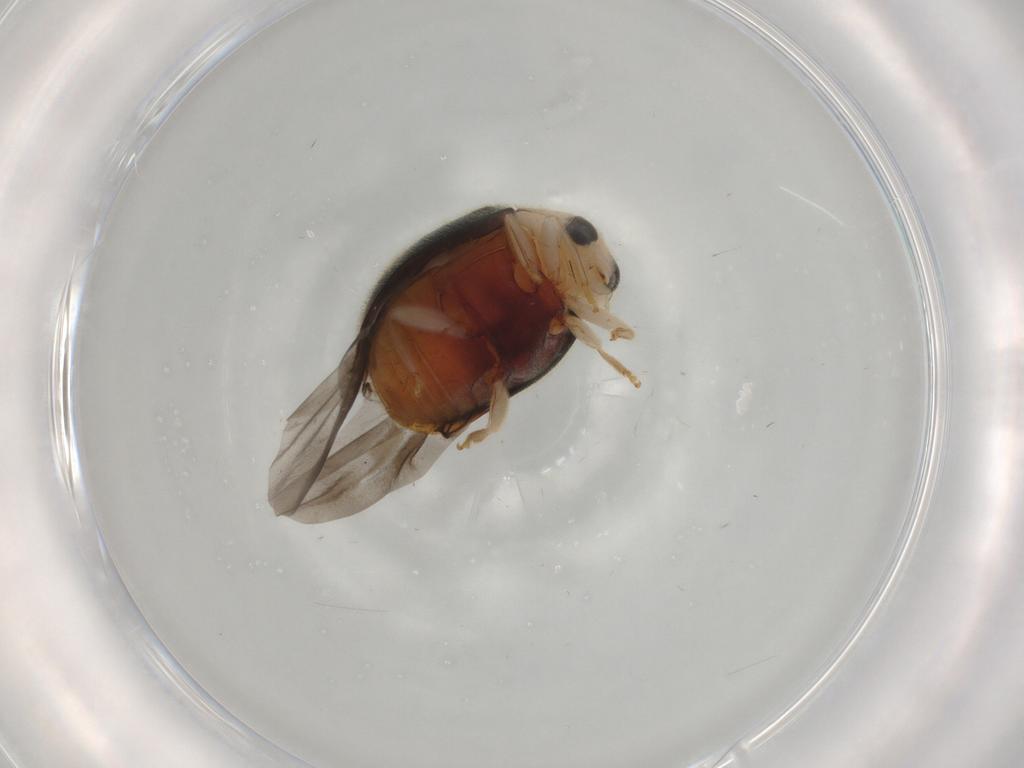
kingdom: Animalia
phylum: Arthropoda
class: Insecta
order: Coleoptera
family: Coccinellidae
